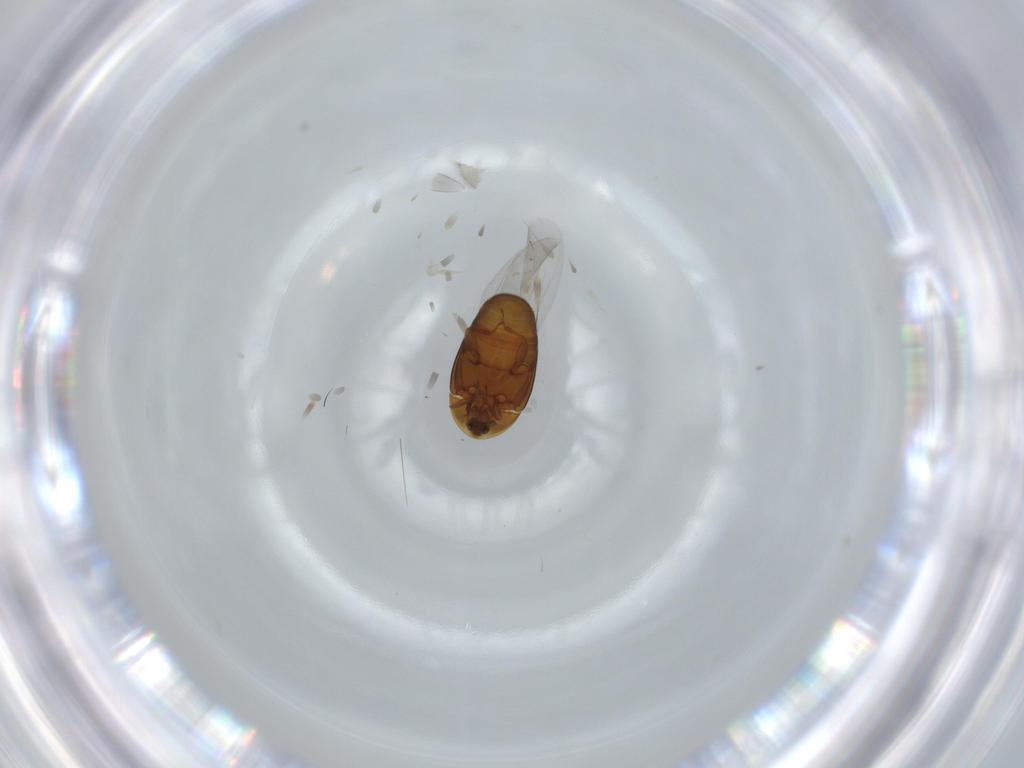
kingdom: Animalia
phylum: Arthropoda
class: Insecta
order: Coleoptera
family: Corylophidae
